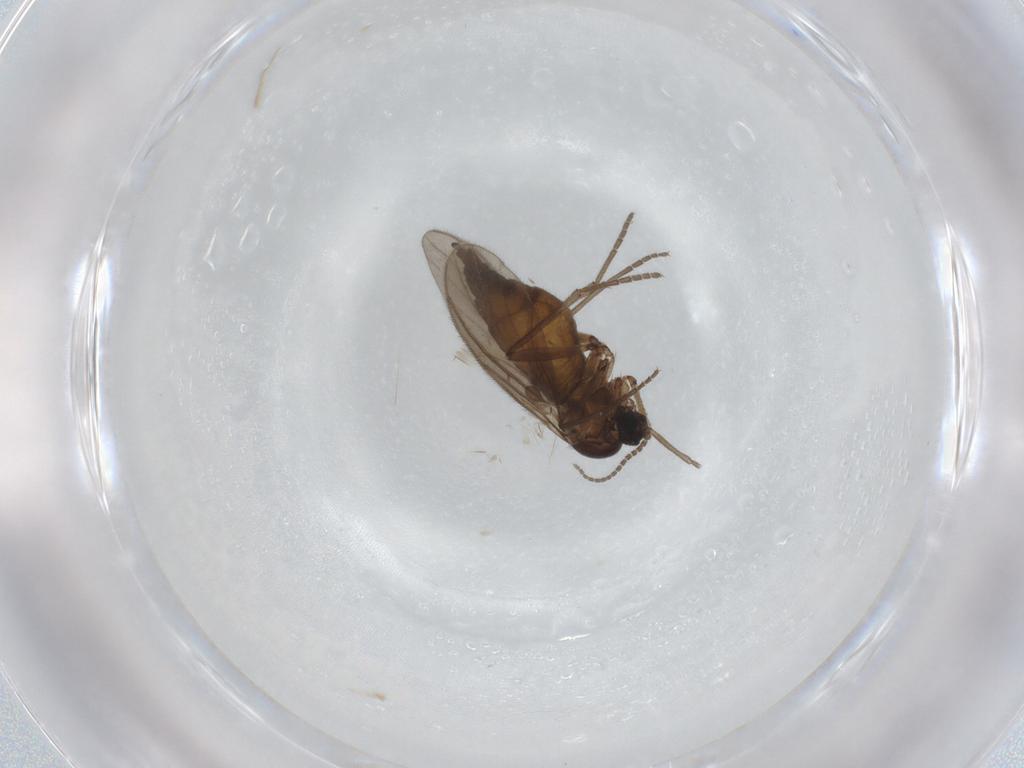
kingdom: Animalia
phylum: Arthropoda
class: Insecta
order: Diptera
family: Sciaridae
